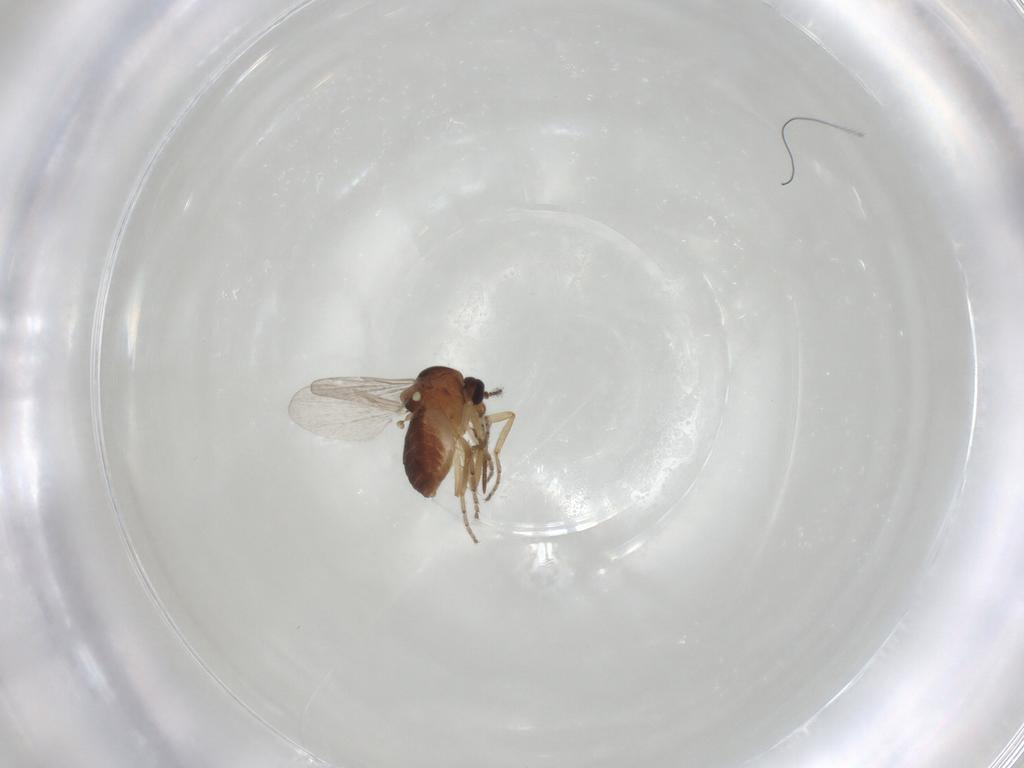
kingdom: Animalia
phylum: Arthropoda
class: Insecta
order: Diptera
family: Ceratopogonidae
